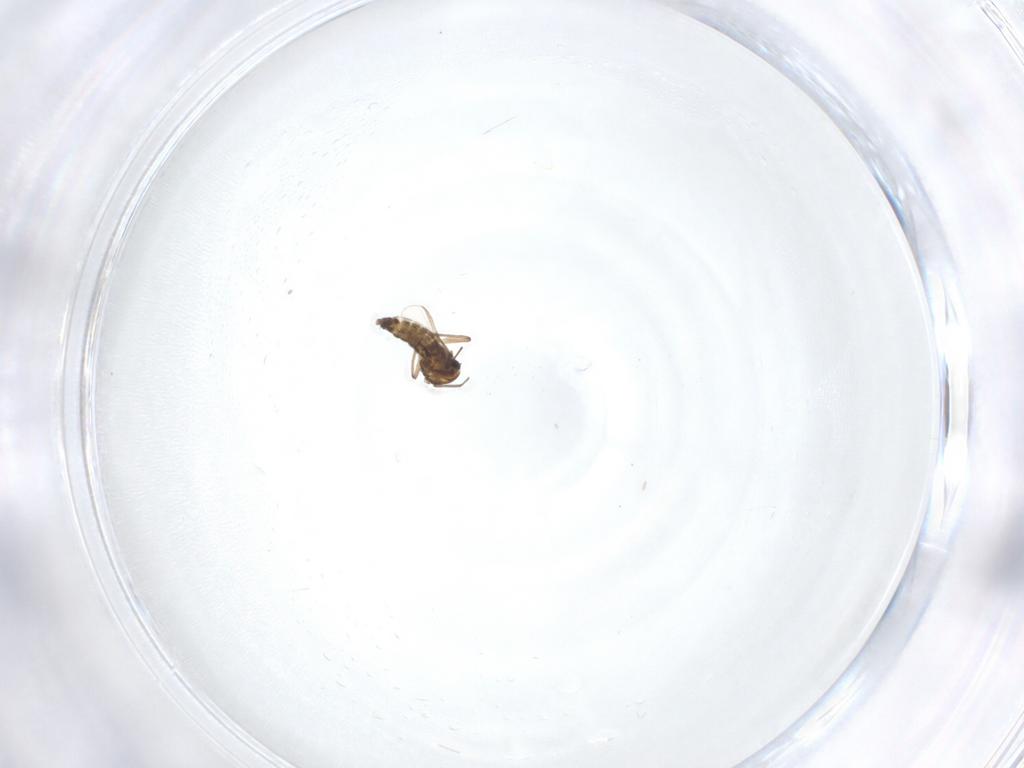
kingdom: Animalia
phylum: Arthropoda
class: Insecta
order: Diptera
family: Chironomidae
